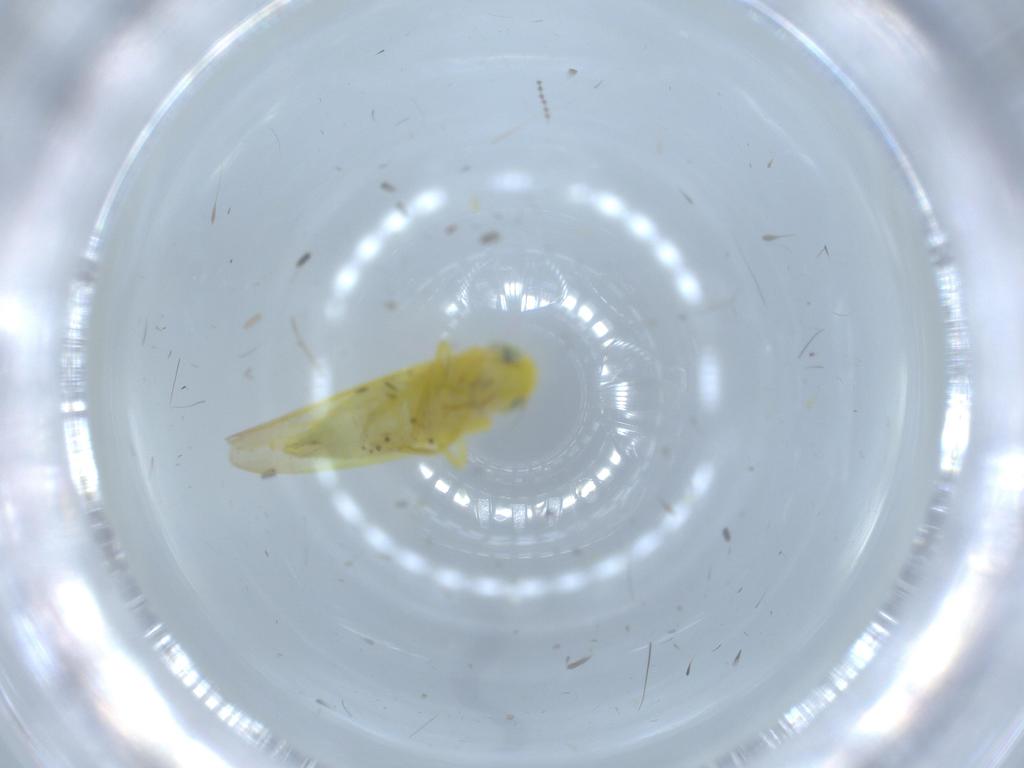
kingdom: Animalia
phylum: Arthropoda
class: Insecta
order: Hemiptera
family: Cicadellidae
